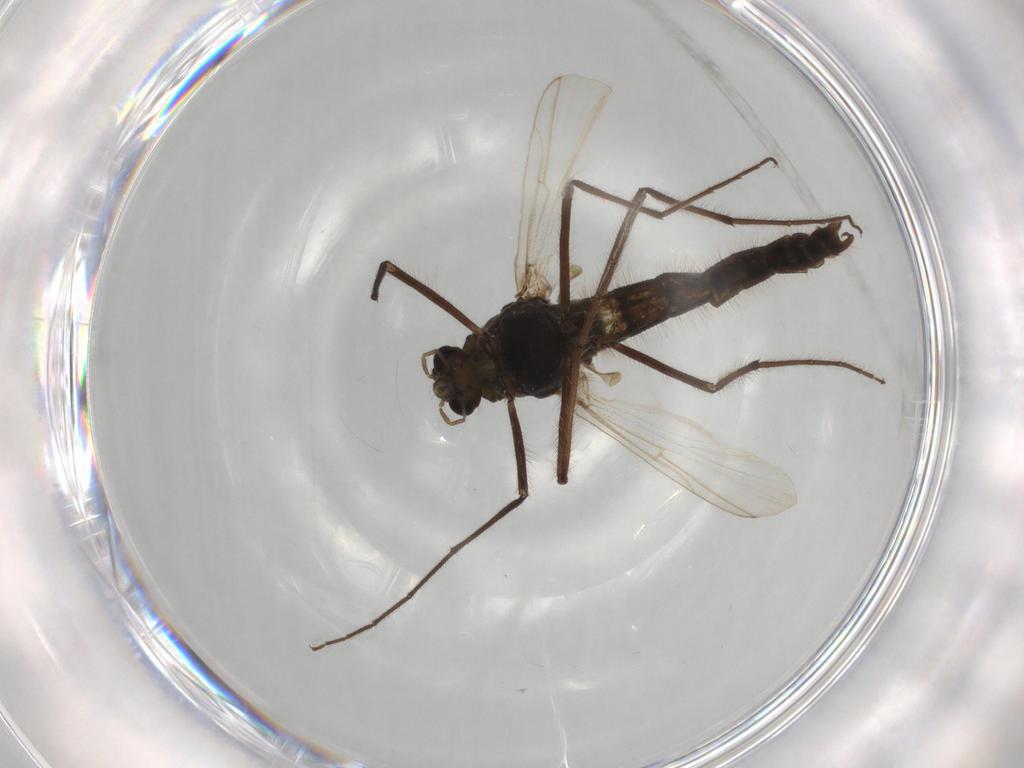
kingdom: Animalia
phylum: Arthropoda
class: Insecta
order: Diptera
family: Chironomidae
